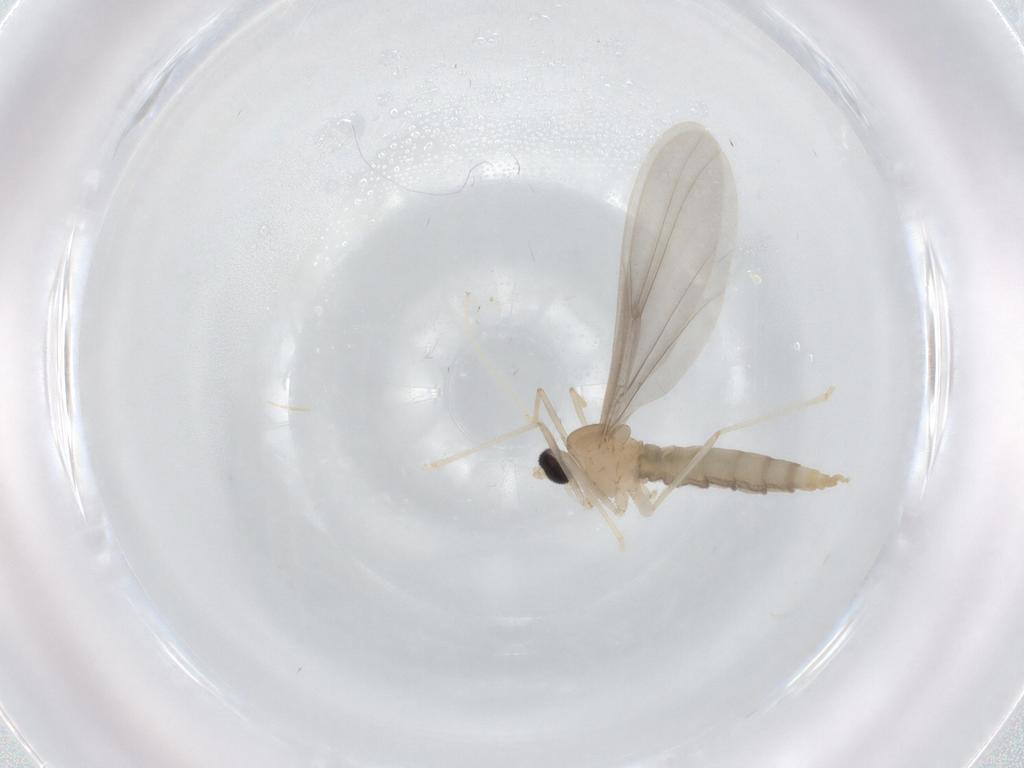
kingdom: Animalia
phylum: Arthropoda
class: Insecta
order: Diptera
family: Cecidomyiidae
